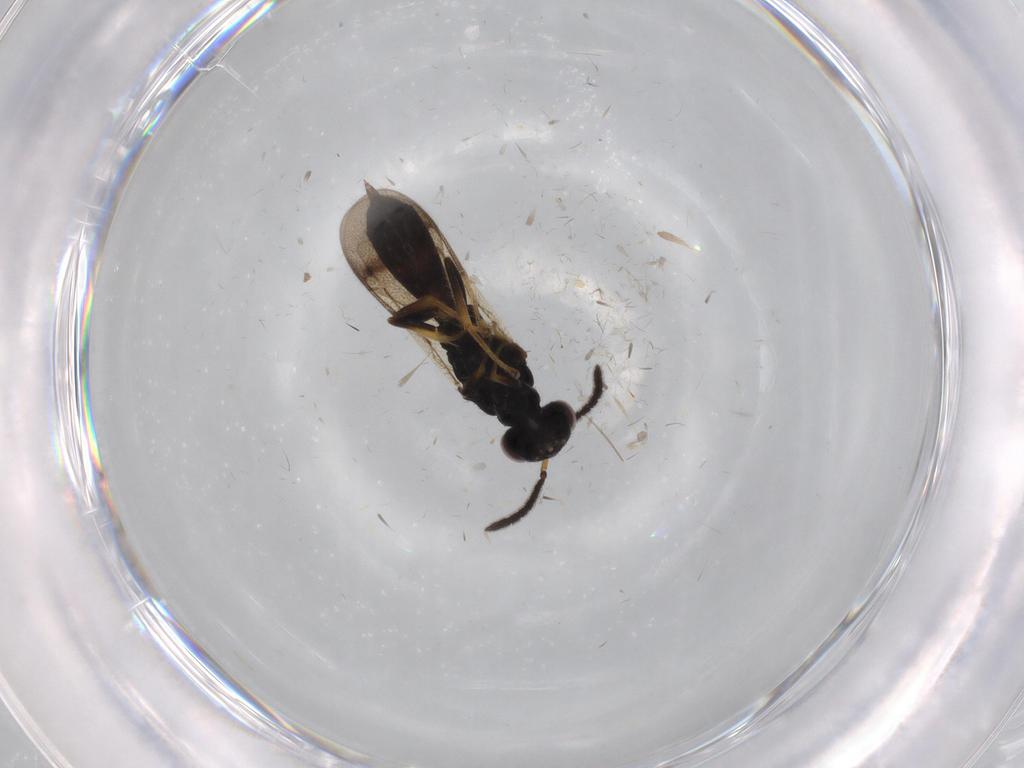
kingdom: Animalia
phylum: Arthropoda
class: Insecta
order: Hymenoptera
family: Pteromalidae
